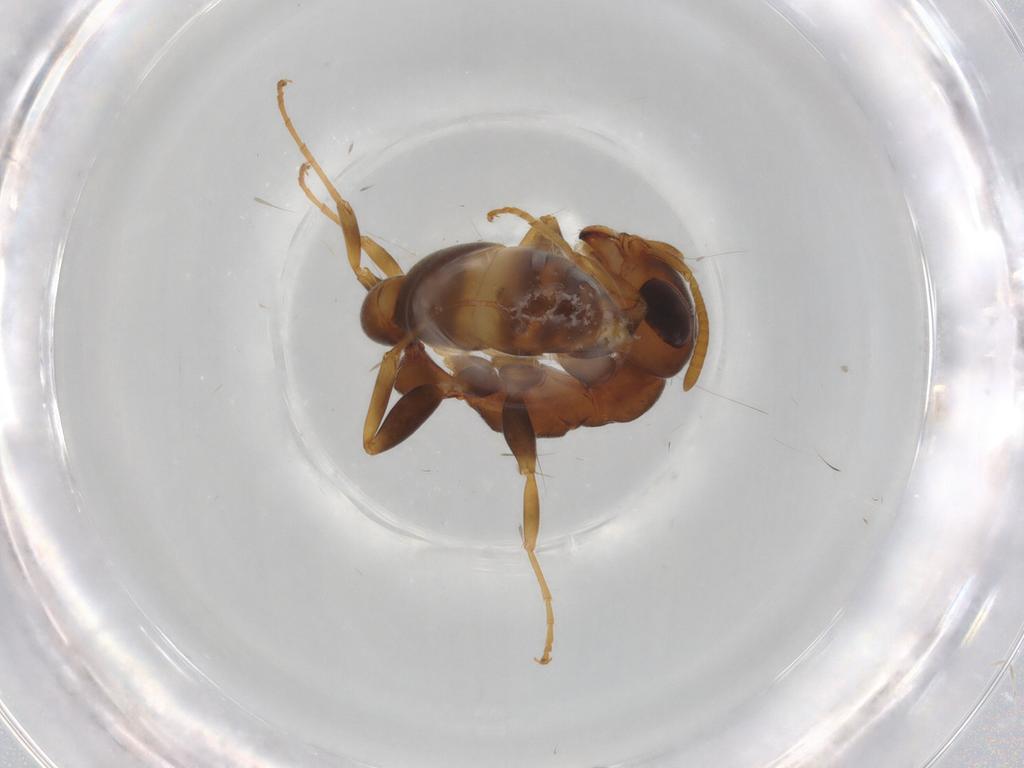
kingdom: Animalia
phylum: Arthropoda
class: Insecta
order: Hymenoptera
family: Formicidae
